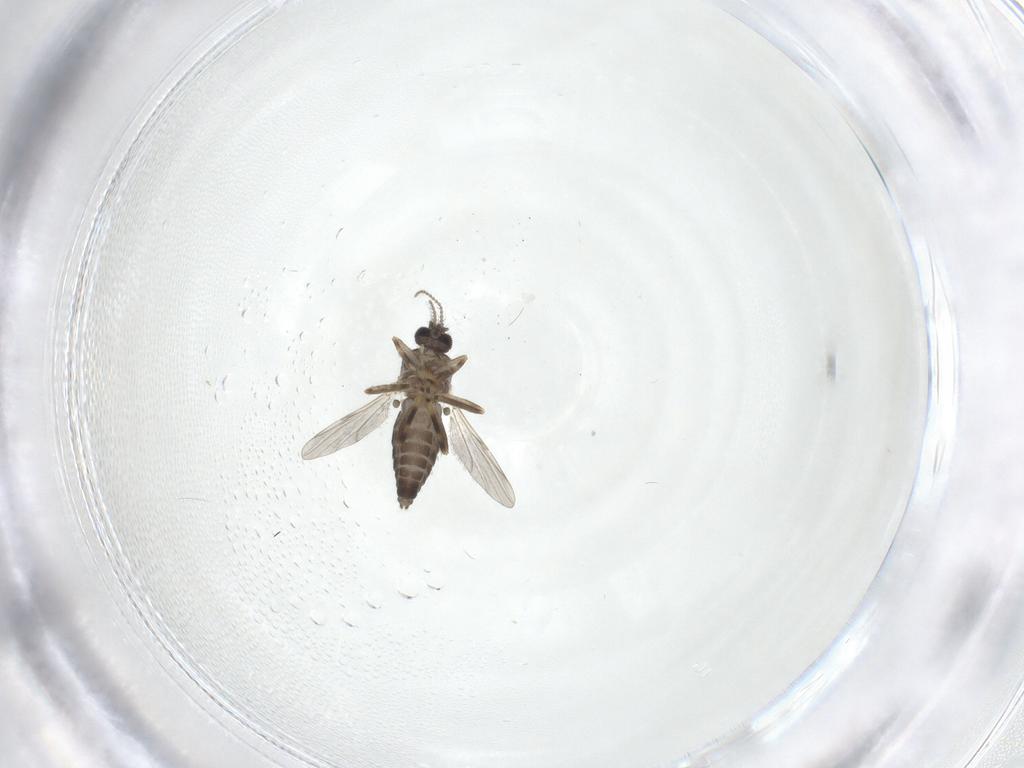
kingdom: Animalia
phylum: Arthropoda
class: Insecta
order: Diptera
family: Ceratopogonidae
